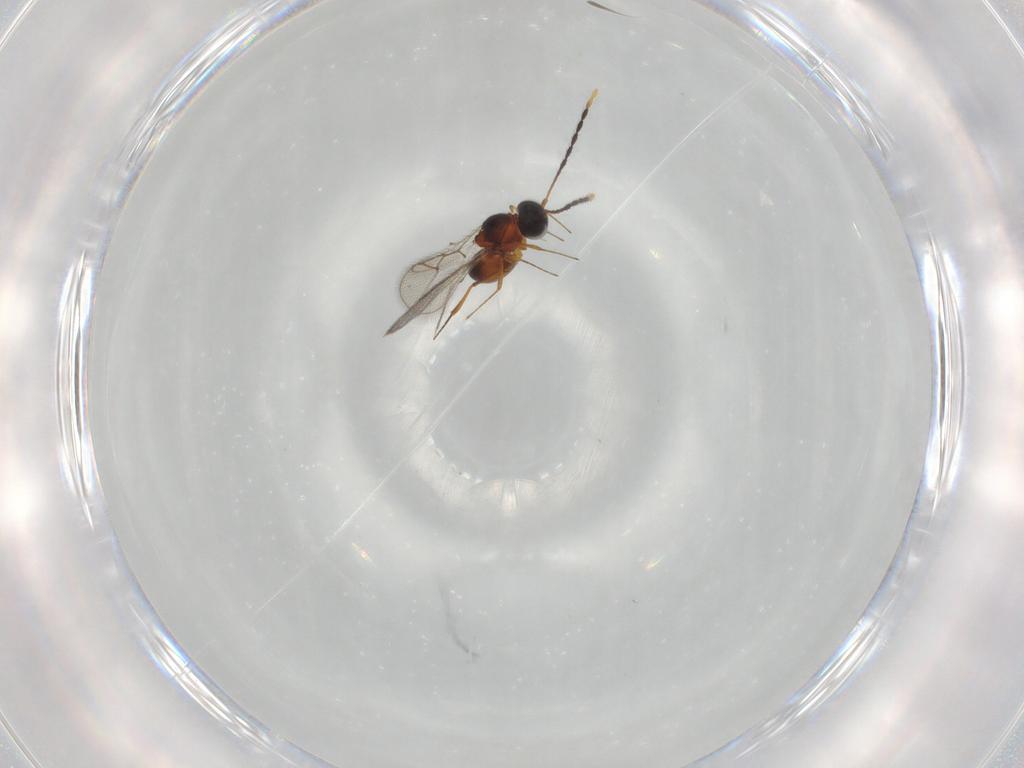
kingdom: Animalia
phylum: Arthropoda
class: Insecta
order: Hymenoptera
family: Figitidae
